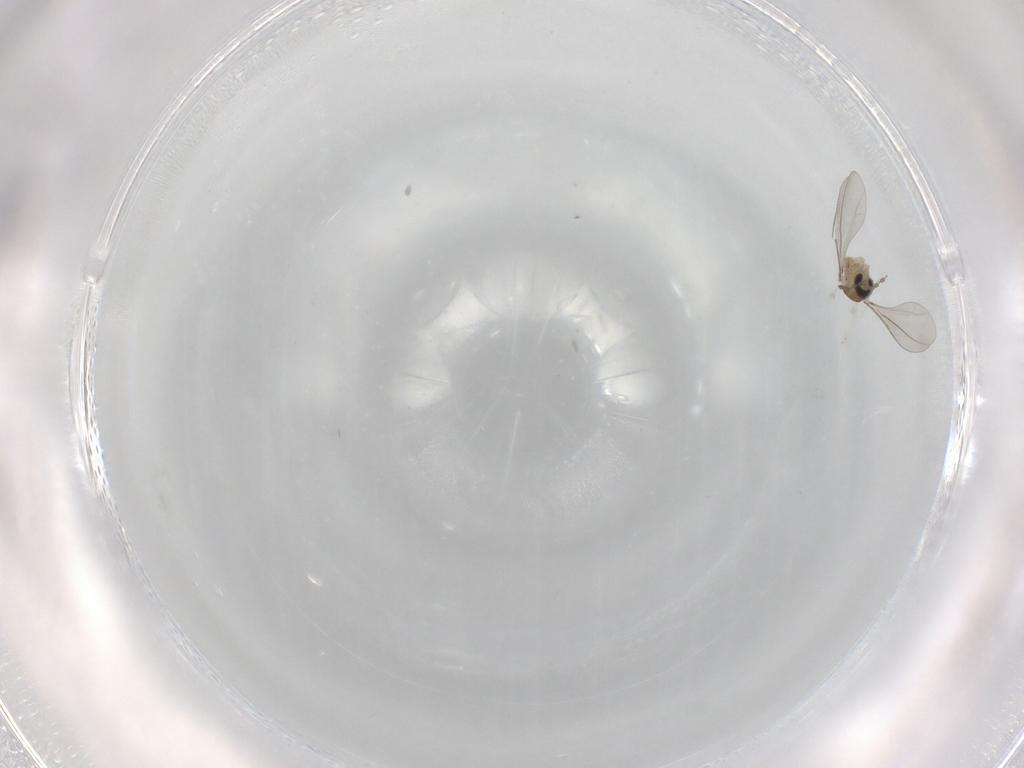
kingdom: Animalia
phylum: Arthropoda
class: Insecta
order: Diptera
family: Limoniidae
